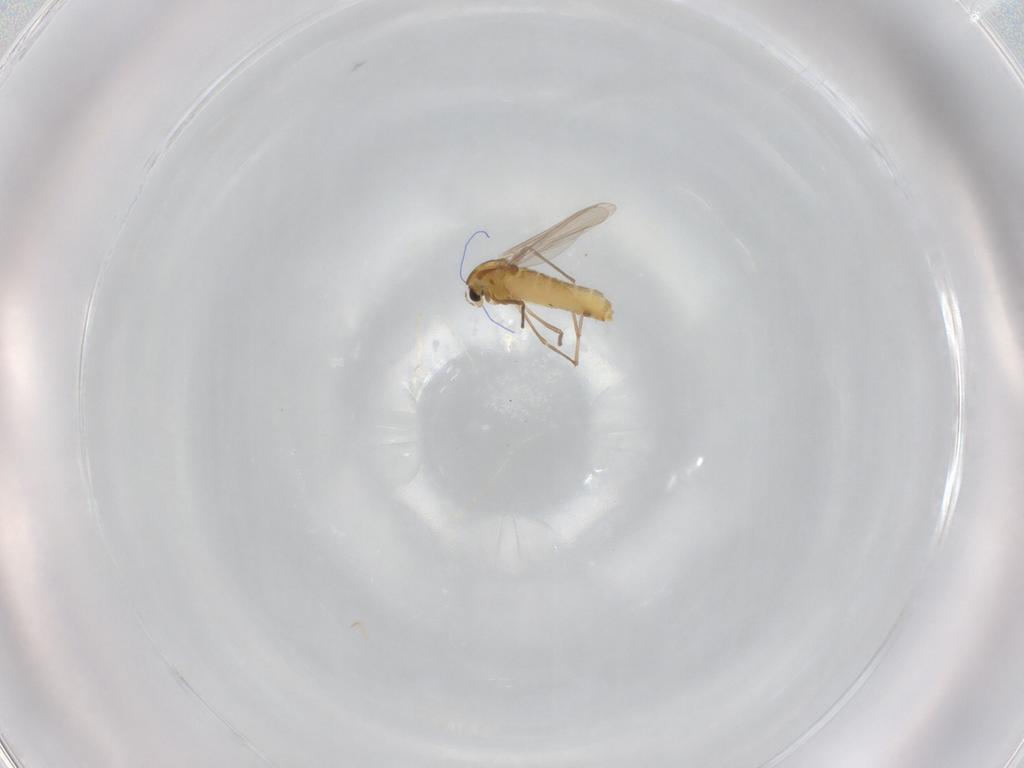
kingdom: Animalia
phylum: Arthropoda
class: Insecta
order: Diptera
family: Chironomidae
